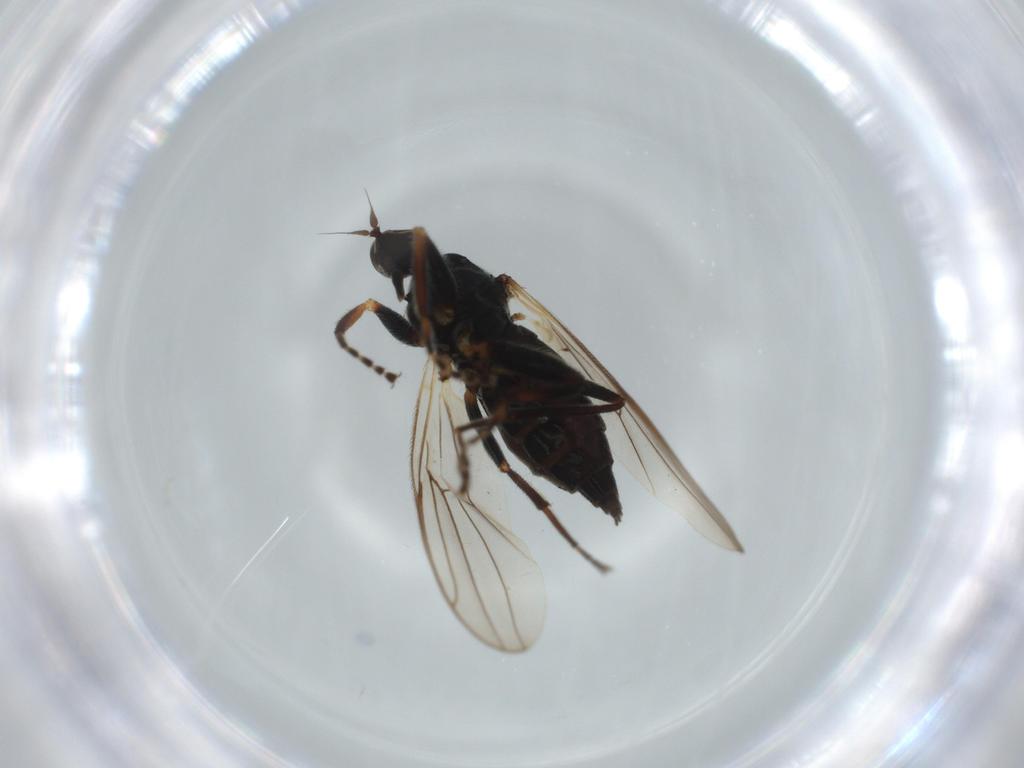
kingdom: Animalia
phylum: Arthropoda
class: Insecta
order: Diptera
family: Hybotidae
